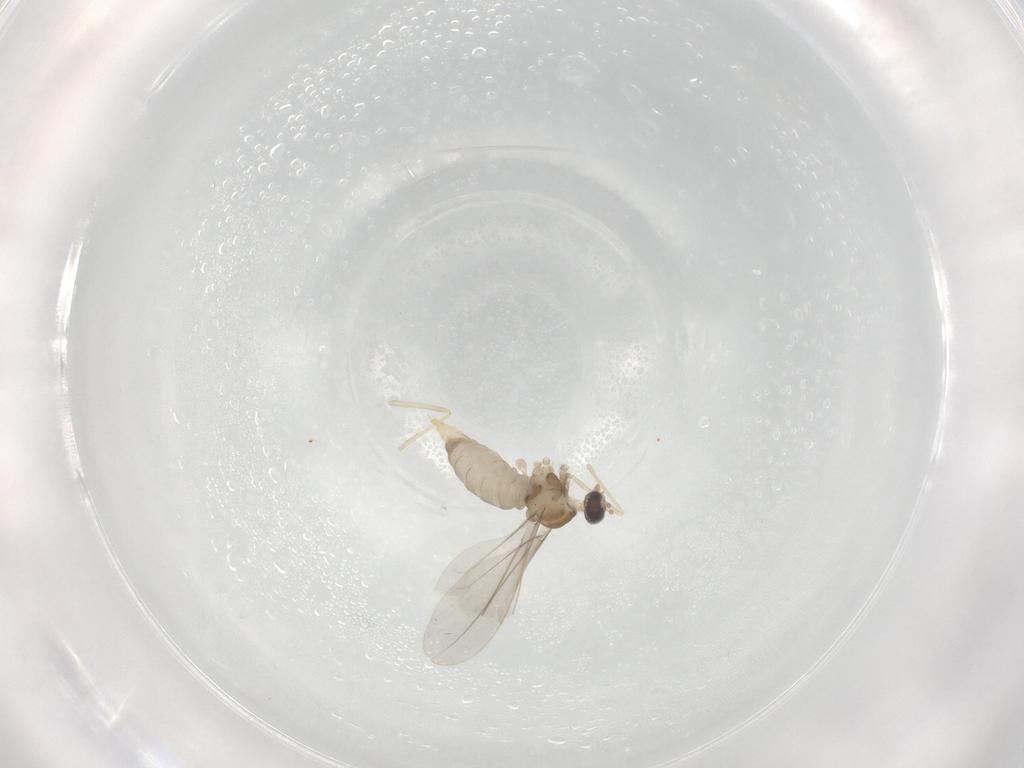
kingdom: Animalia
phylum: Arthropoda
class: Insecta
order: Diptera
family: Cecidomyiidae
